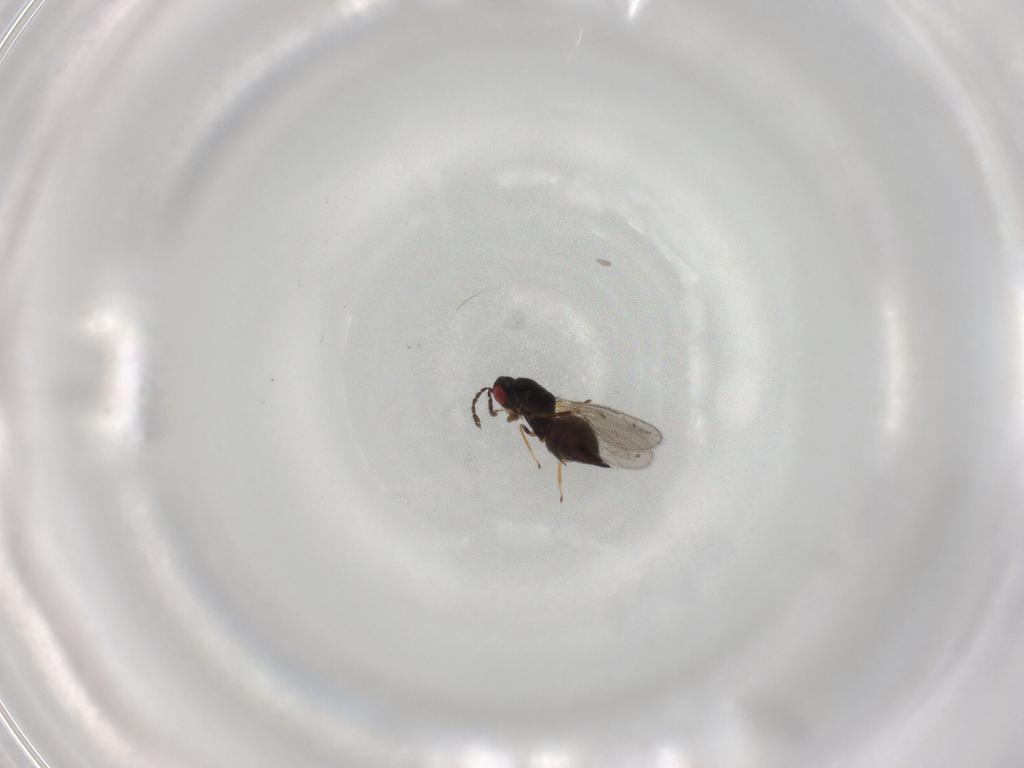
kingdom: Animalia
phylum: Arthropoda
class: Insecta
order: Hymenoptera
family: Eulophidae
